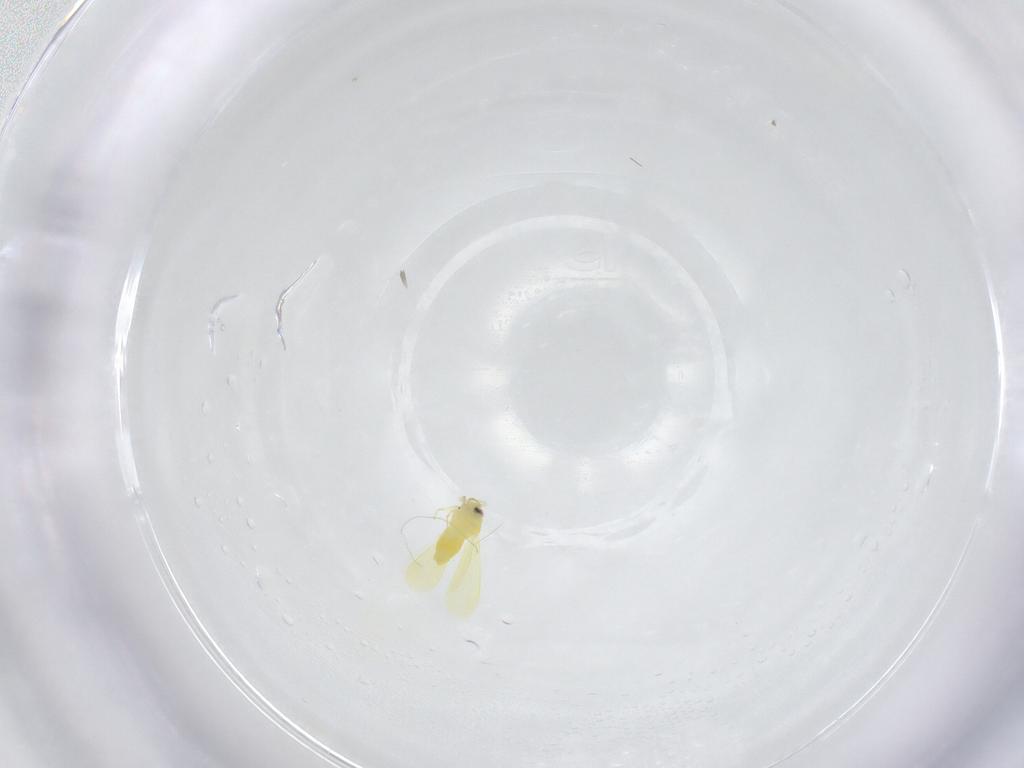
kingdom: Animalia
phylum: Arthropoda
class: Insecta
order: Hemiptera
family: Aleyrodidae
